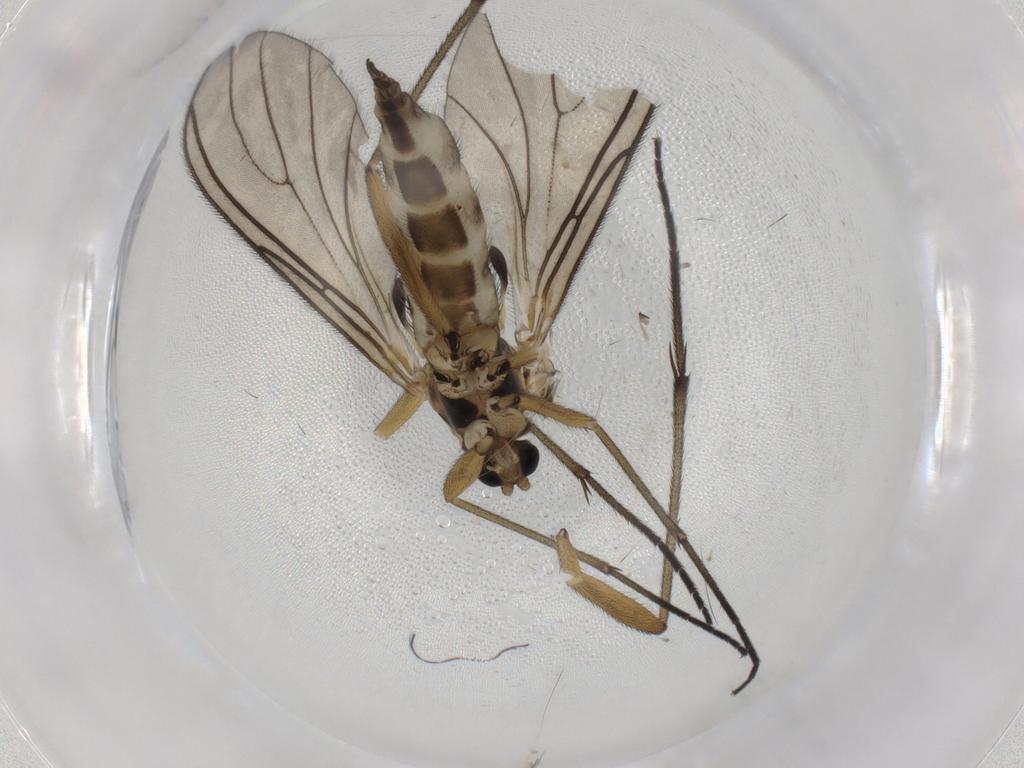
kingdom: Animalia
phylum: Arthropoda
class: Insecta
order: Diptera
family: Sciaridae
